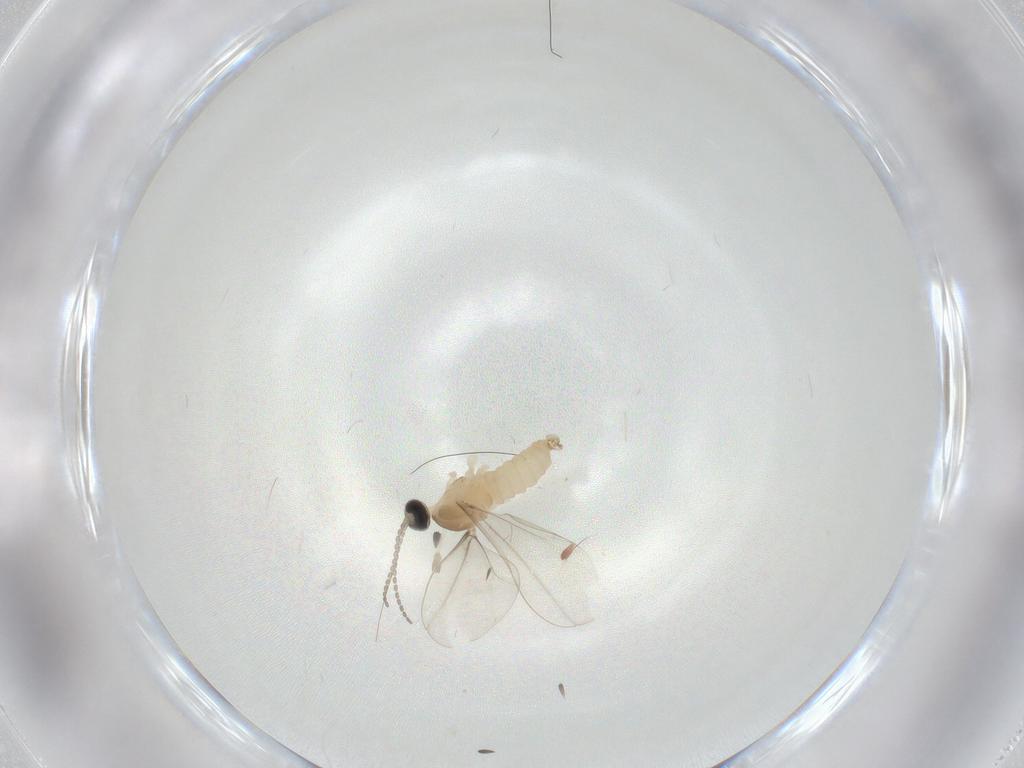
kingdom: Animalia
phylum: Arthropoda
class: Insecta
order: Diptera
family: Cecidomyiidae
